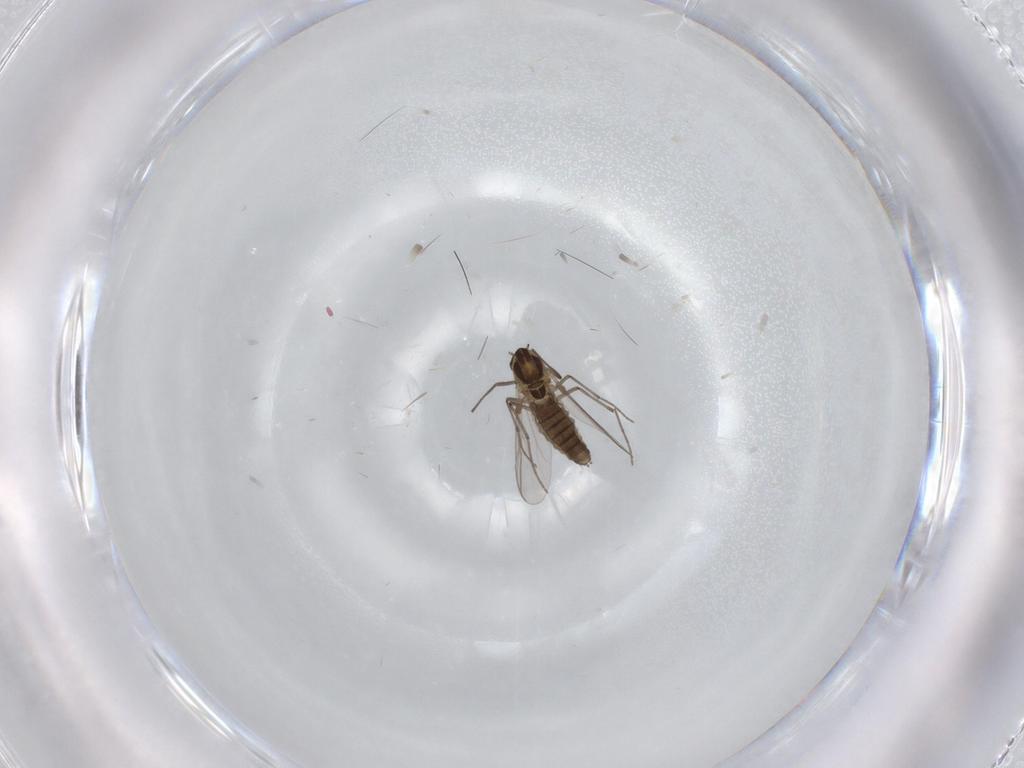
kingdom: Animalia
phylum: Arthropoda
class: Insecta
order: Diptera
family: Chironomidae
